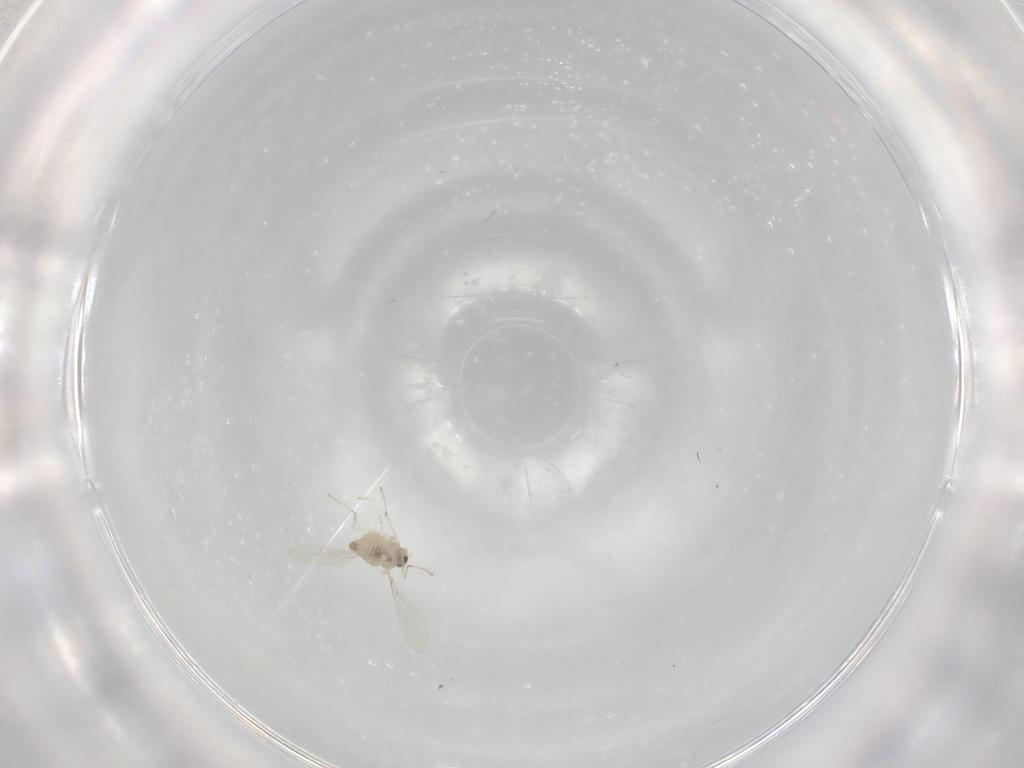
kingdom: Animalia
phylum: Arthropoda
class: Insecta
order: Diptera
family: Cecidomyiidae
